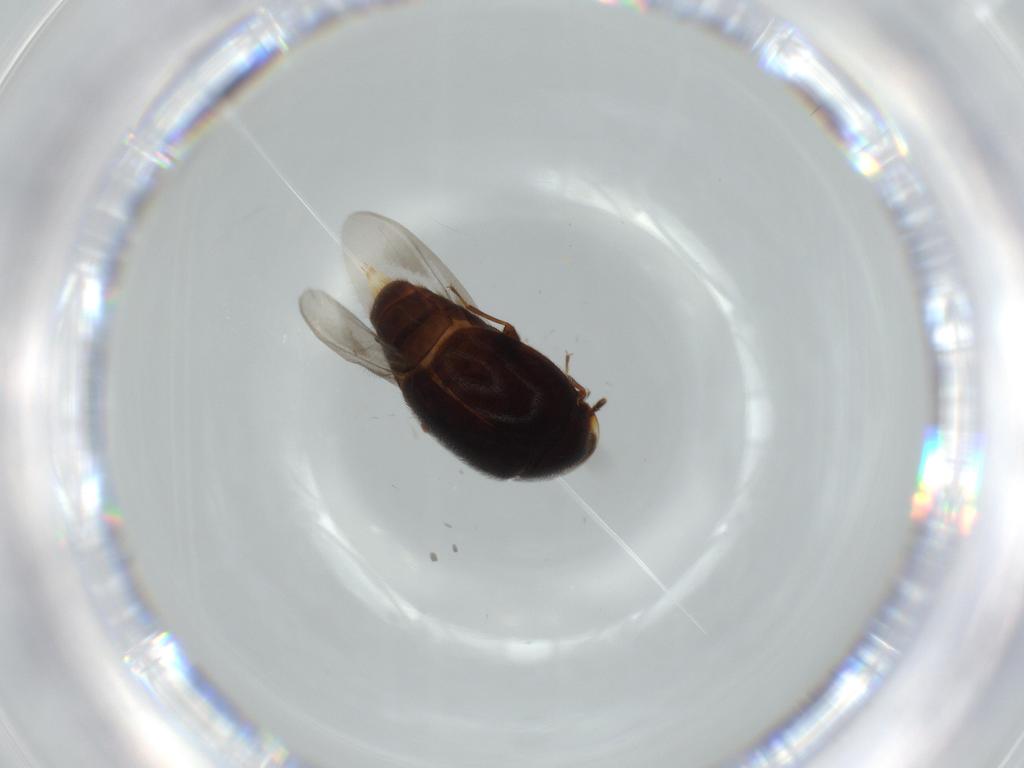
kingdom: Animalia
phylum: Arthropoda
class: Insecta
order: Coleoptera
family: Corylophidae
